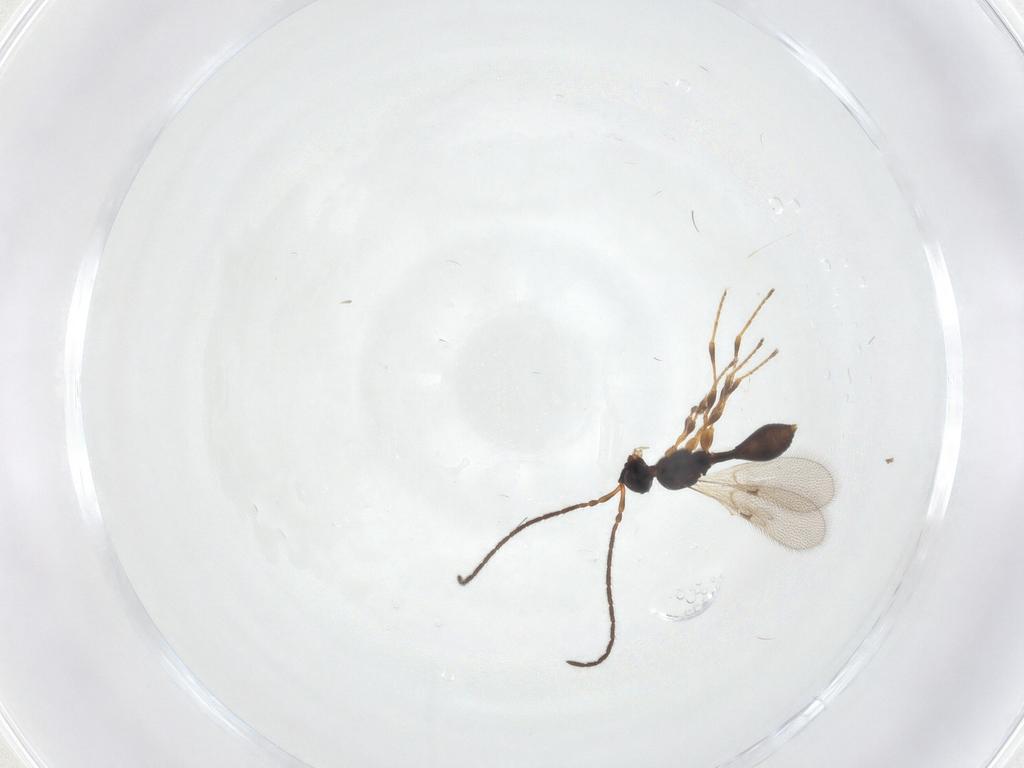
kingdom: Animalia
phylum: Arthropoda
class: Insecta
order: Hymenoptera
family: Diapriidae
